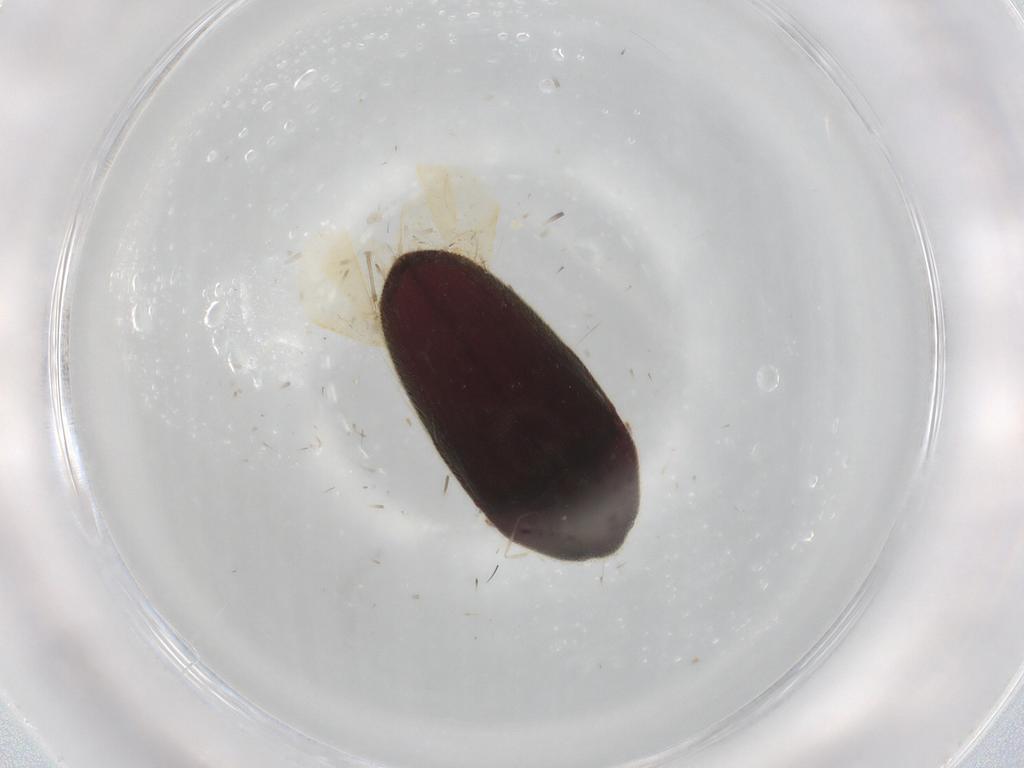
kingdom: Animalia
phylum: Arthropoda
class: Insecta
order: Coleoptera
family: Throscidae
